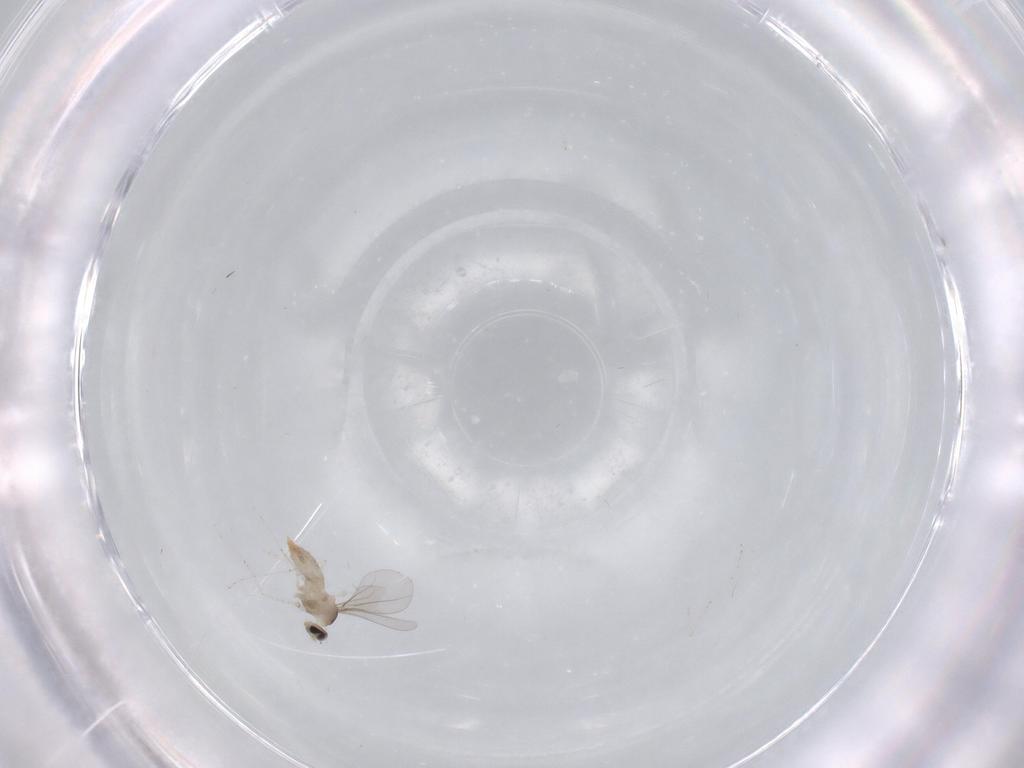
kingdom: Animalia
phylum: Arthropoda
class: Insecta
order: Diptera
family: Cecidomyiidae
